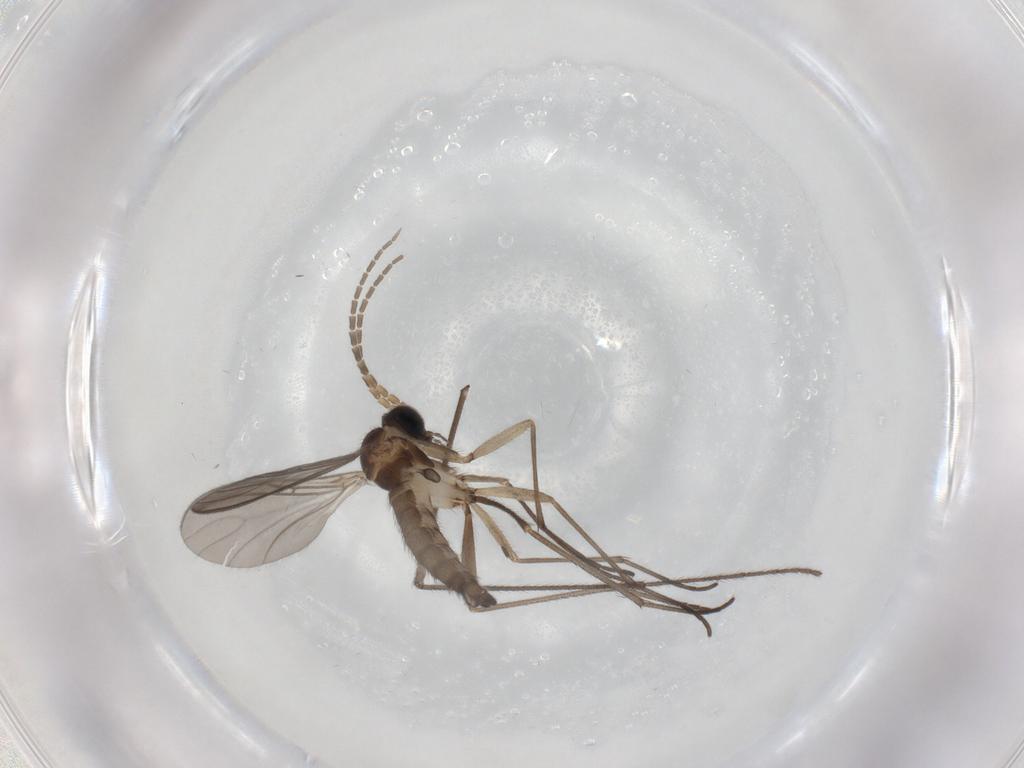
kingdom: Animalia
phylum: Arthropoda
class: Insecta
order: Diptera
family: Sciaridae
